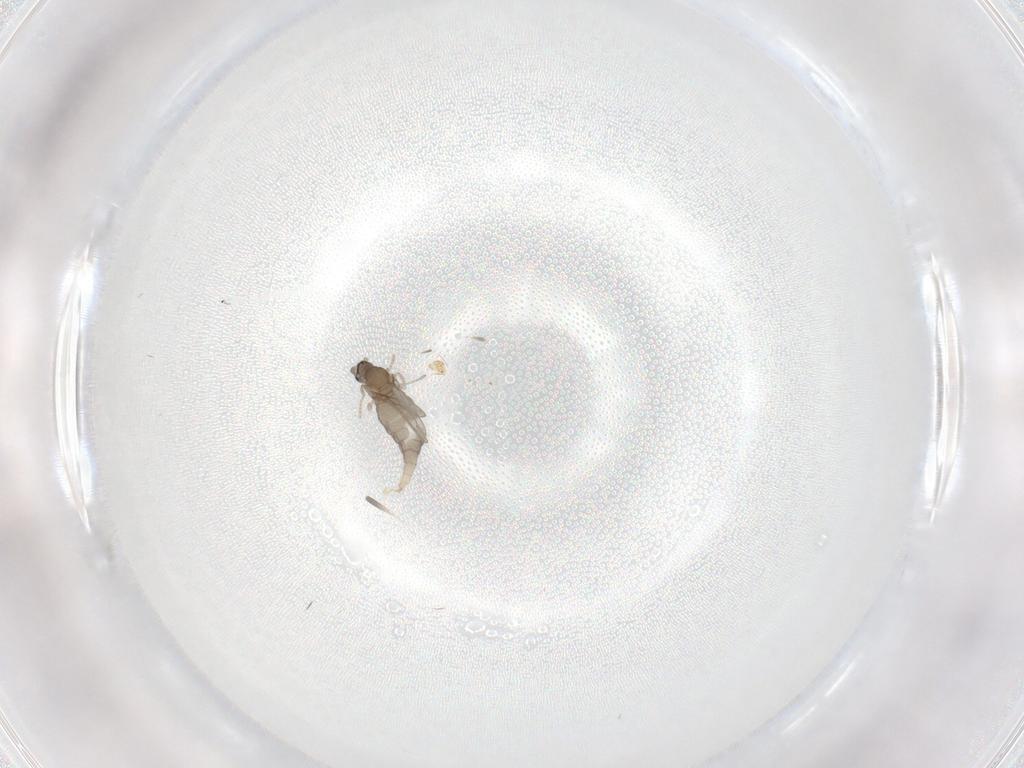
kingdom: Animalia
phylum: Arthropoda
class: Insecta
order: Diptera
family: Cecidomyiidae
